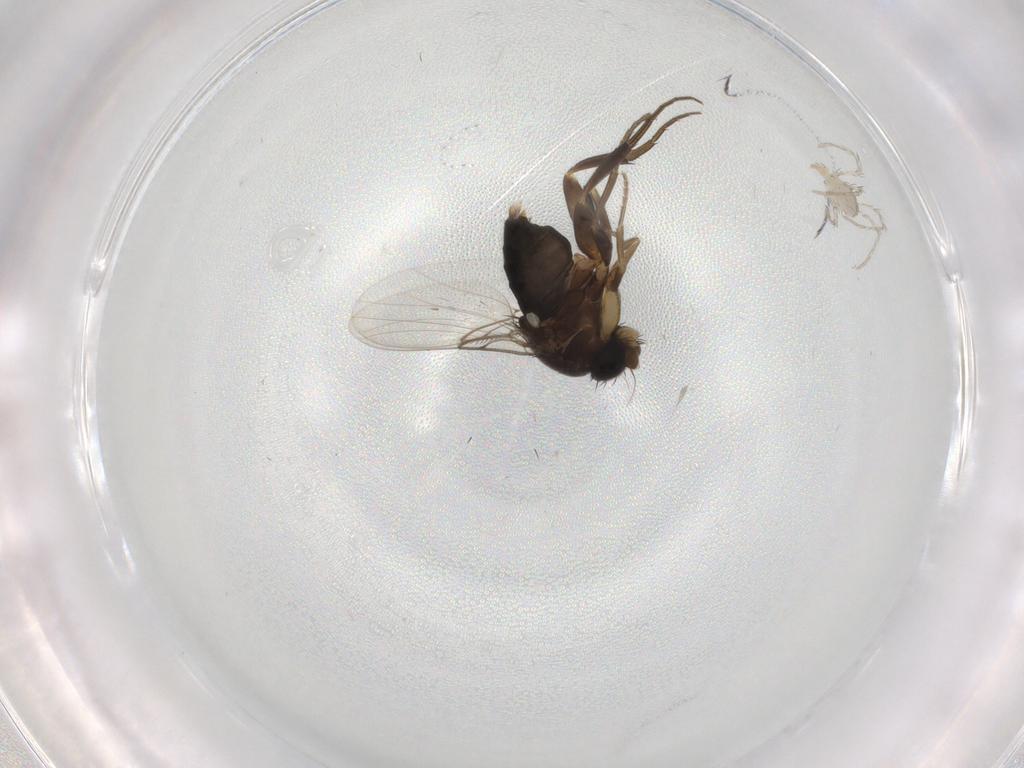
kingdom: Animalia
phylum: Arthropoda
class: Insecta
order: Diptera
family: Phoridae
